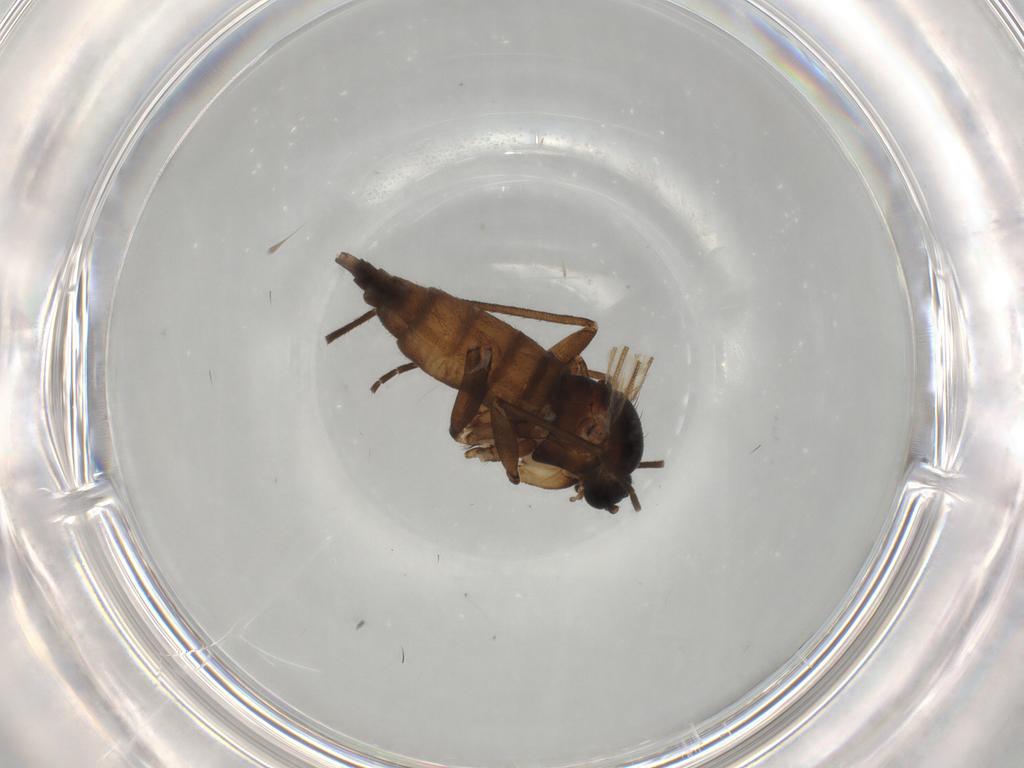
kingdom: Animalia
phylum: Arthropoda
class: Insecta
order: Diptera
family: Sciaridae
